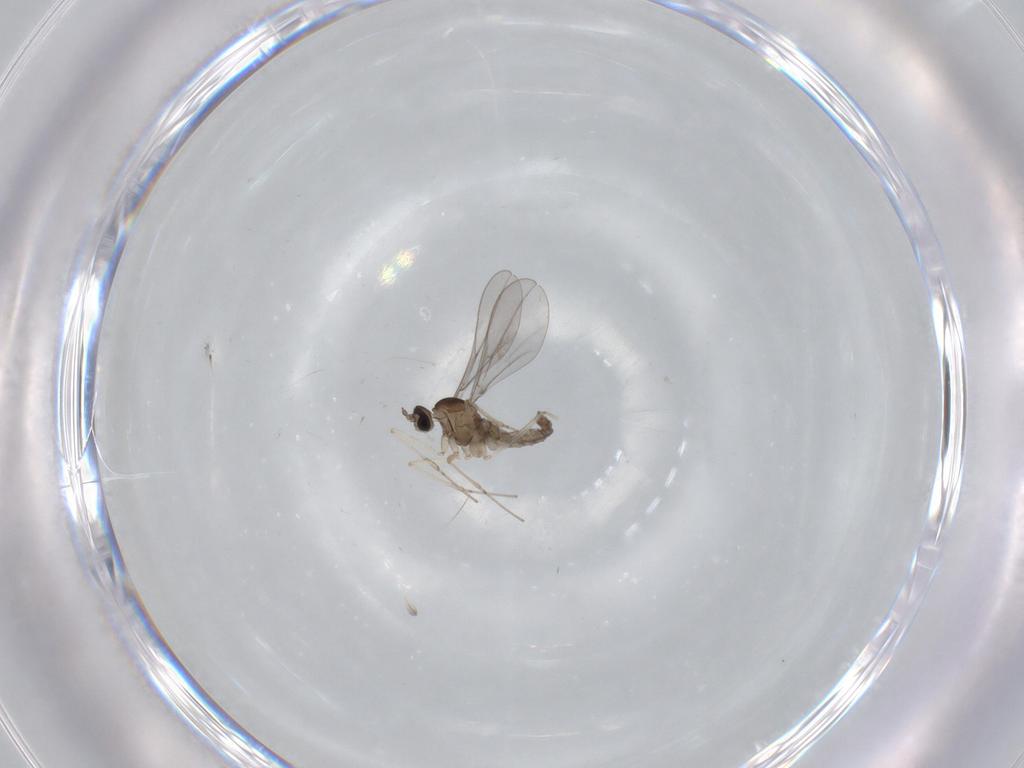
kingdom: Animalia
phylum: Arthropoda
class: Insecta
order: Diptera
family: Cecidomyiidae
